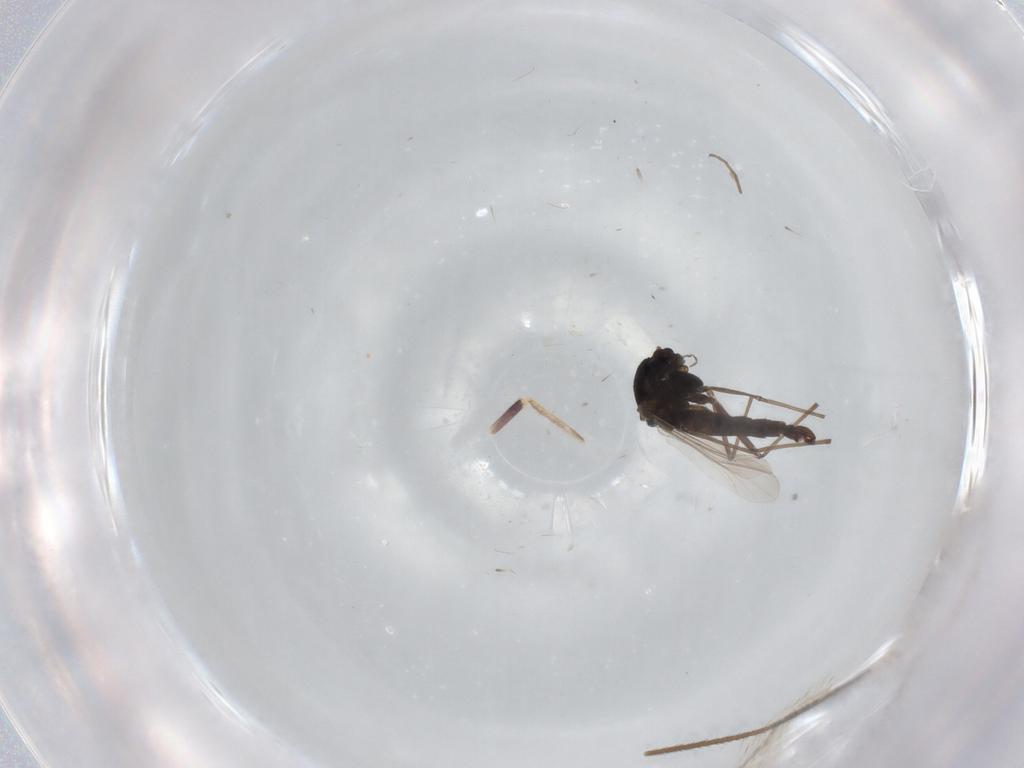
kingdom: Animalia
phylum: Arthropoda
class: Insecta
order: Diptera
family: Chironomidae
